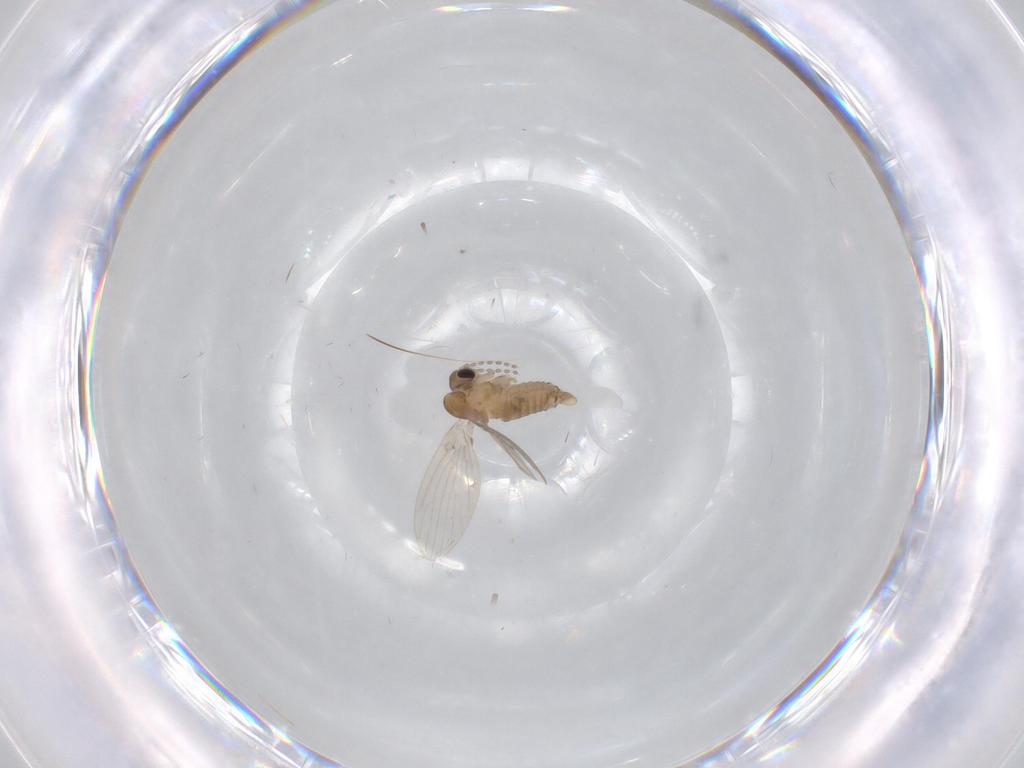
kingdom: Animalia
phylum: Arthropoda
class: Insecta
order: Diptera
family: Psychodidae
